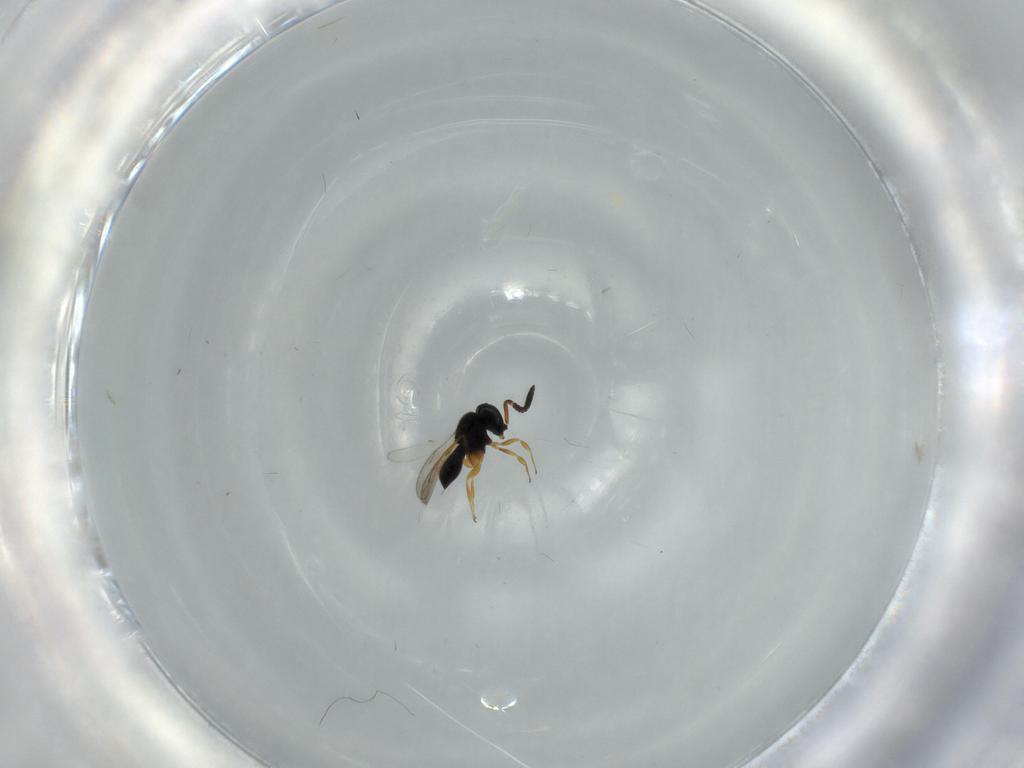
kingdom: Animalia
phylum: Arthropoda
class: Insecta
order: Hymenoptera
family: Scelionidae
